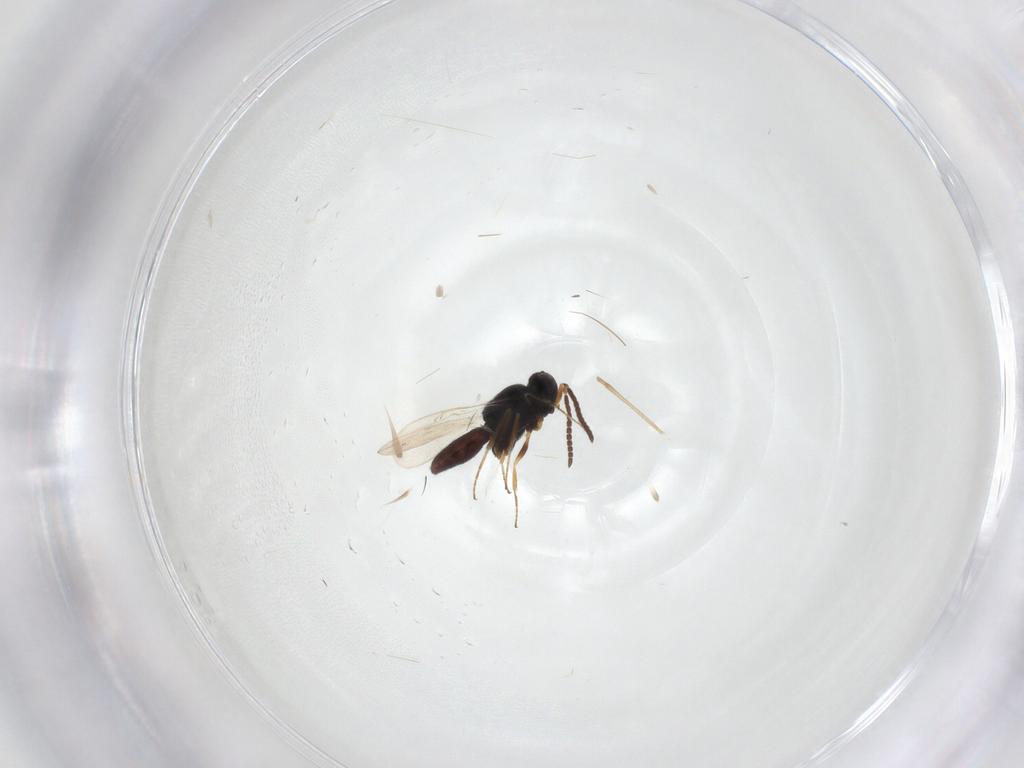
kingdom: Animalia
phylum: Arthropoda
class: Insecta
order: Hymenoptera
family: Scelionidae
